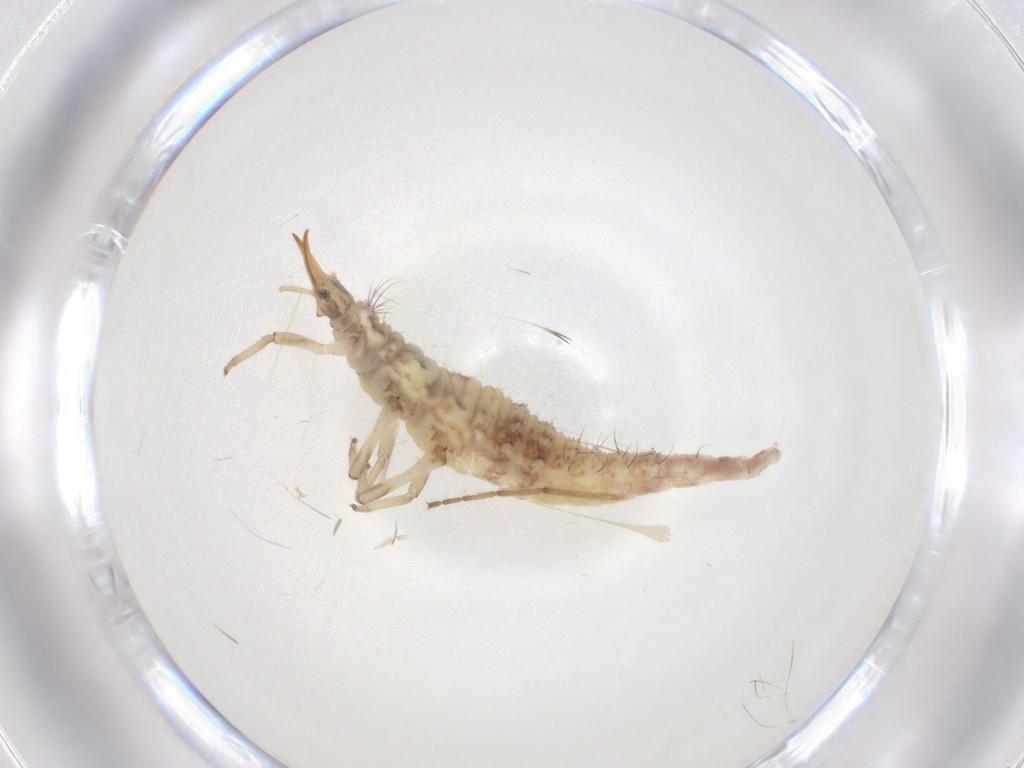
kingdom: Animalia
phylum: Arthropoda
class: Insecta
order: Neuroptera
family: Chrysopidae
